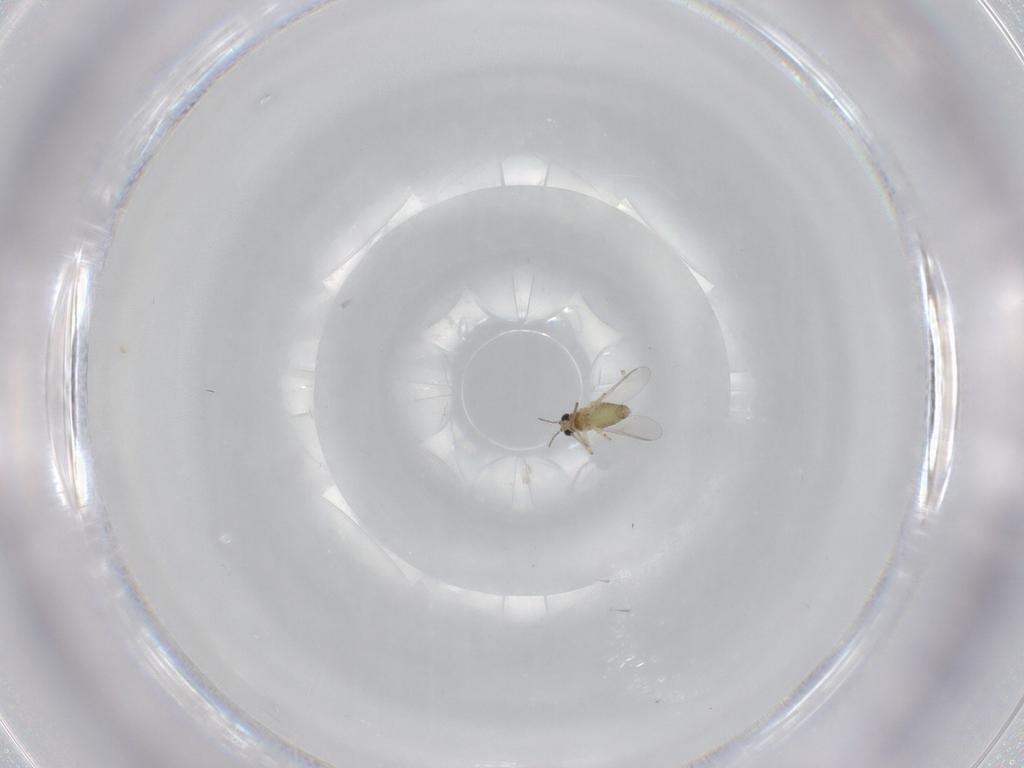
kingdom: Animalia
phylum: Arthropoda
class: Insecta
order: Diptera
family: Chironomidae
